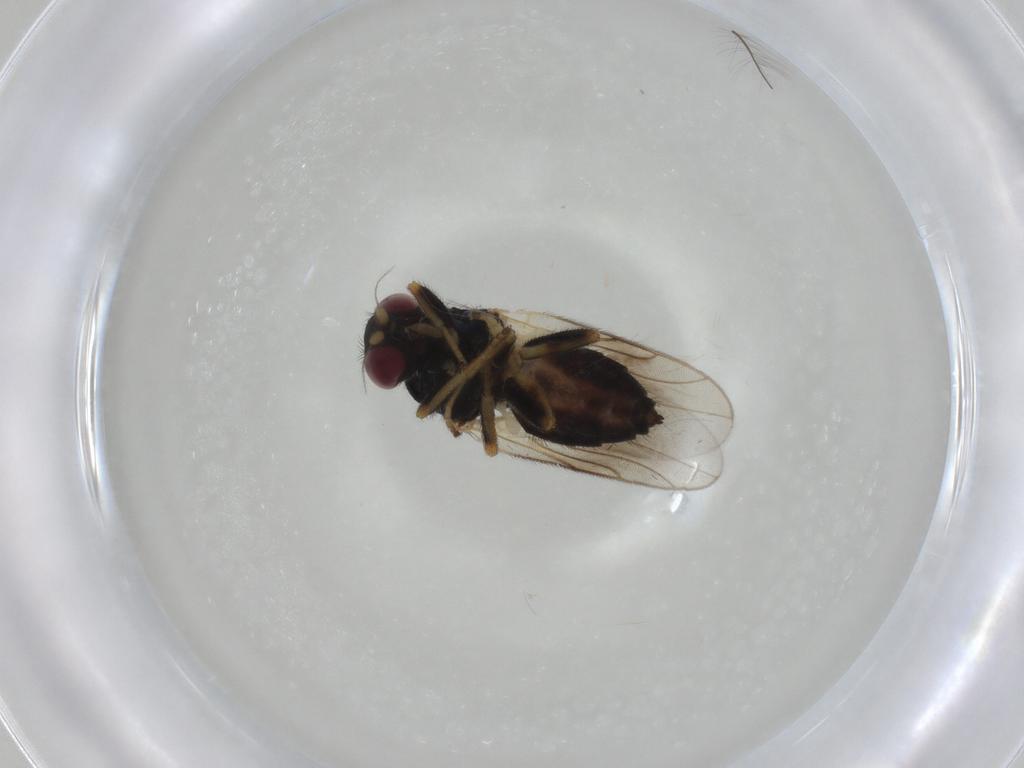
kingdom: Animalia
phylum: Arthropoda
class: Insecta
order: Diptera
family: Chloropidae
